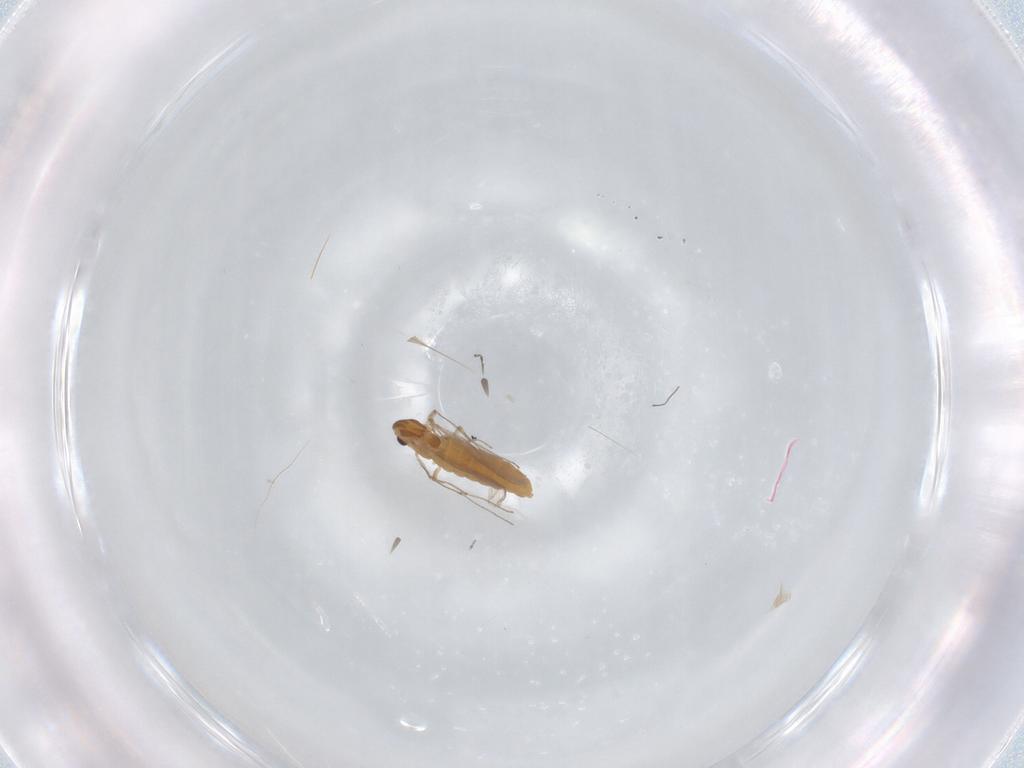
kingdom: Animalia
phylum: Arthropoda
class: Insecta
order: Diptera
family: Chironomidae
